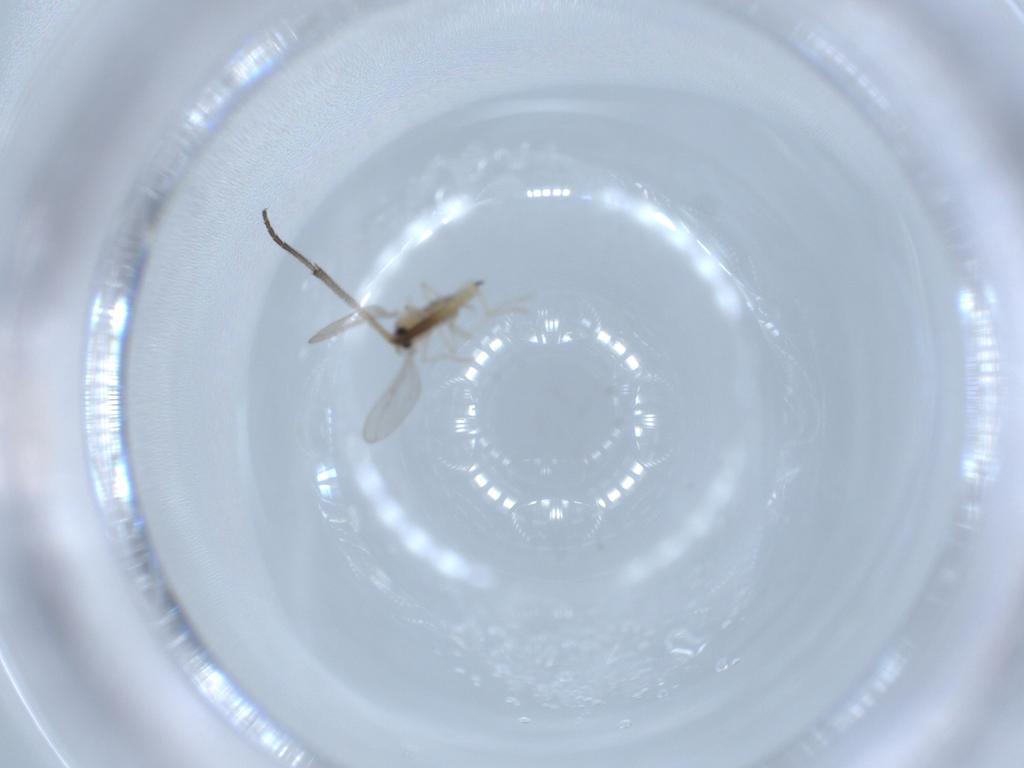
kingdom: Animalia
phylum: Arthropoda
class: Insecta
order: Diptera
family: Cecidomyiidae
